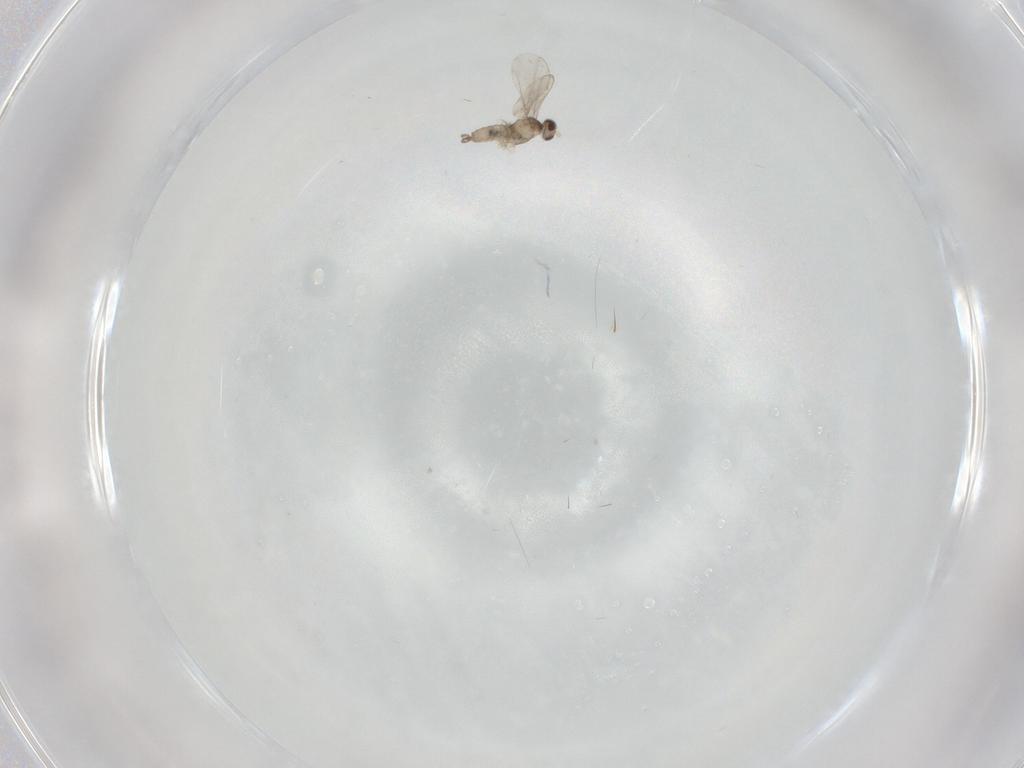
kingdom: Animalia
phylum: Arthropoda
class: Insecta
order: Diptera
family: Cecidomyiidae
